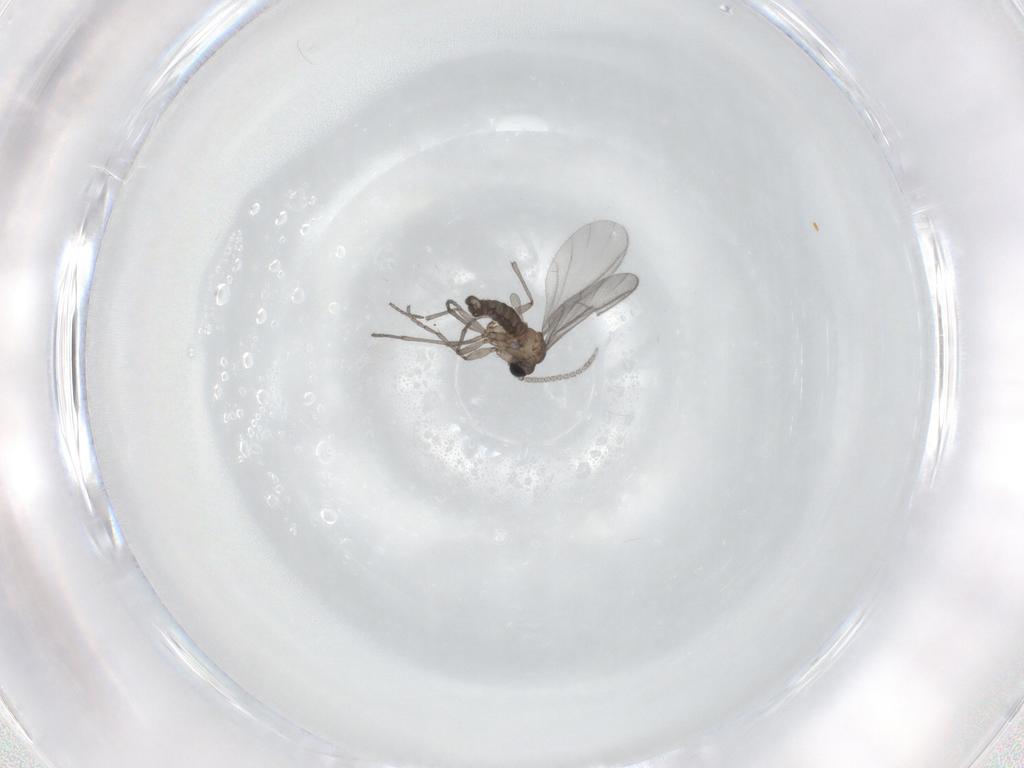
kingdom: Animalia
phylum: Arthropoda
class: Insecta
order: Diptera
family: Sciaridae
